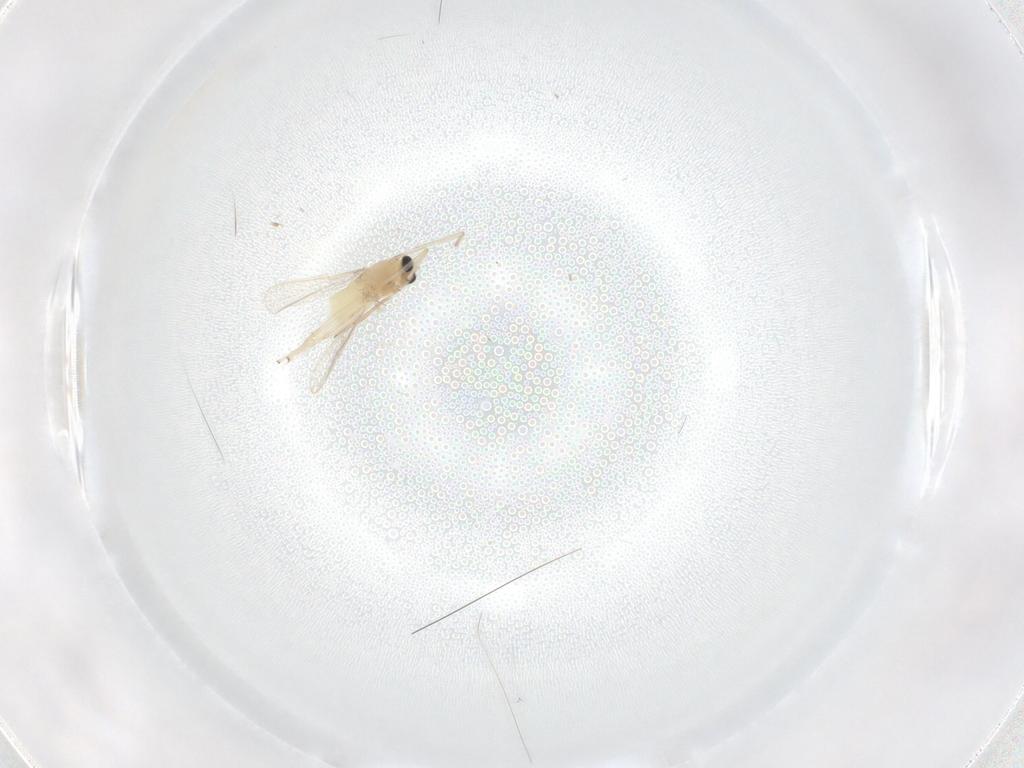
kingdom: Animalia
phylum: Arthropoda
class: Insecta
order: Diptera
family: Chironomidae
